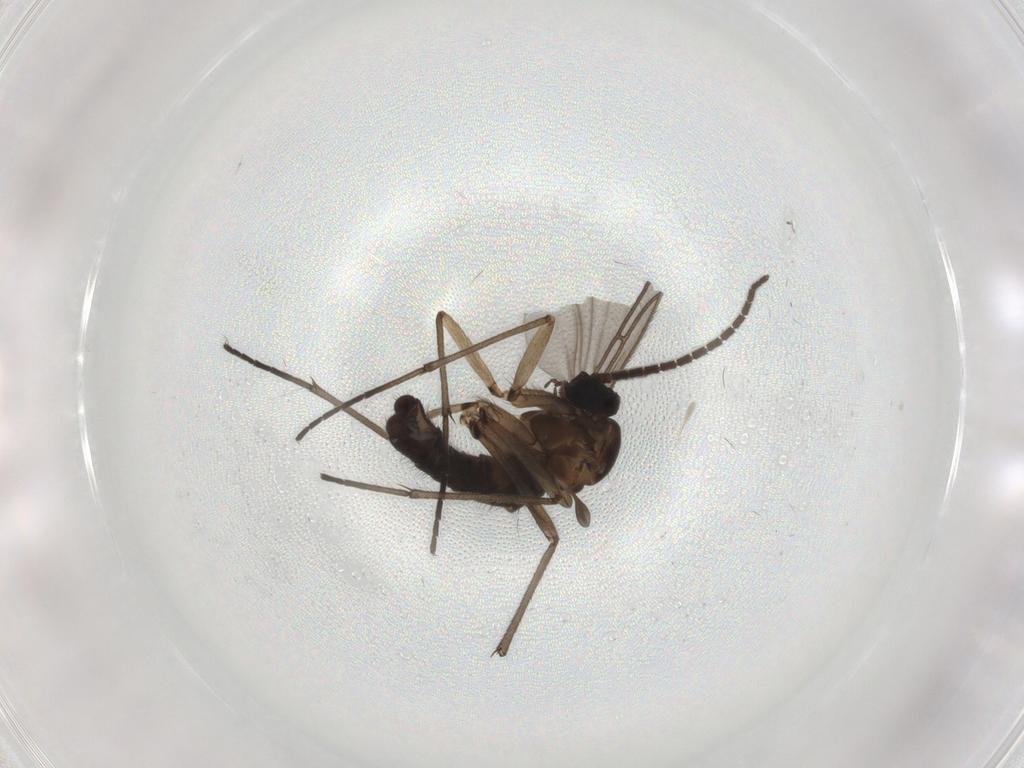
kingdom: Animalia
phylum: Arthropoda
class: Insecta
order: Diptera
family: Sciaridae
